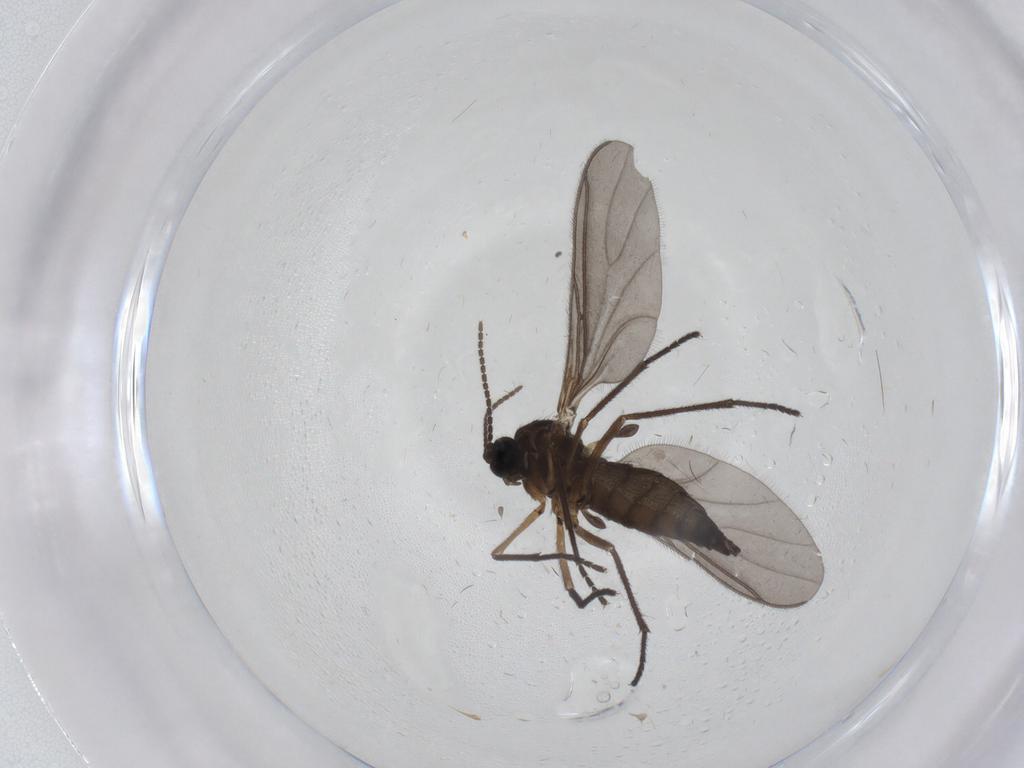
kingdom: Animalia
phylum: Arthropoda
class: Insecta
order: Diptera
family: Sciaridae
